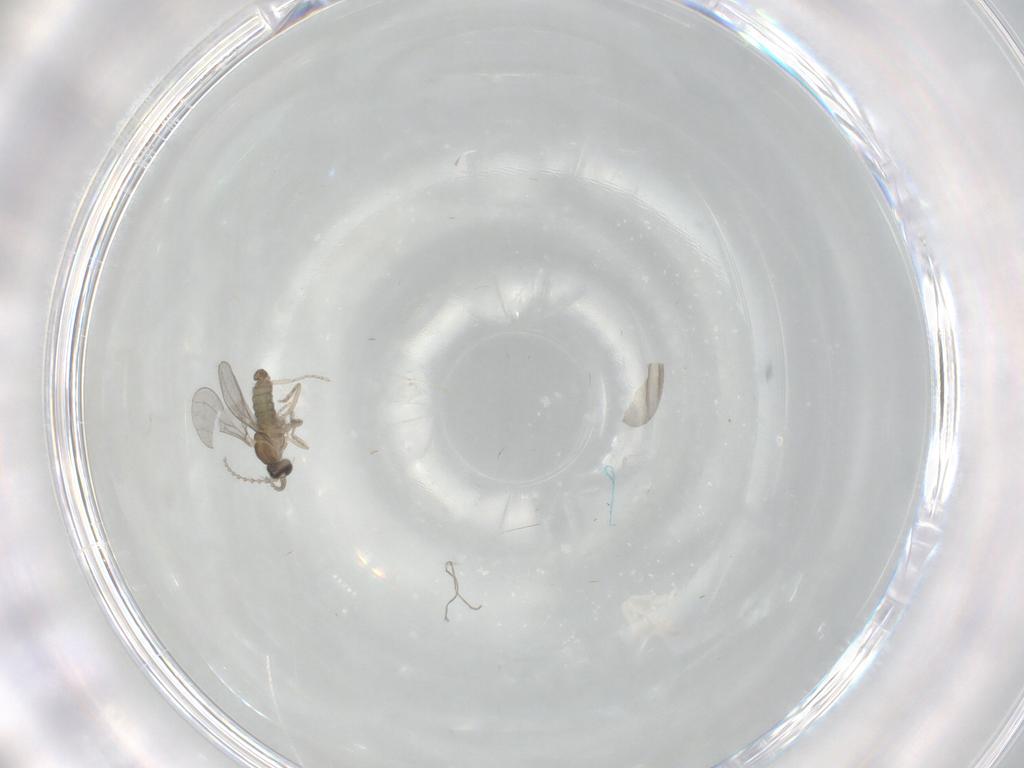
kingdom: Animalia
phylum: Arthropoda
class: Insecta
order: Diptera
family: Cecidomyiidae
